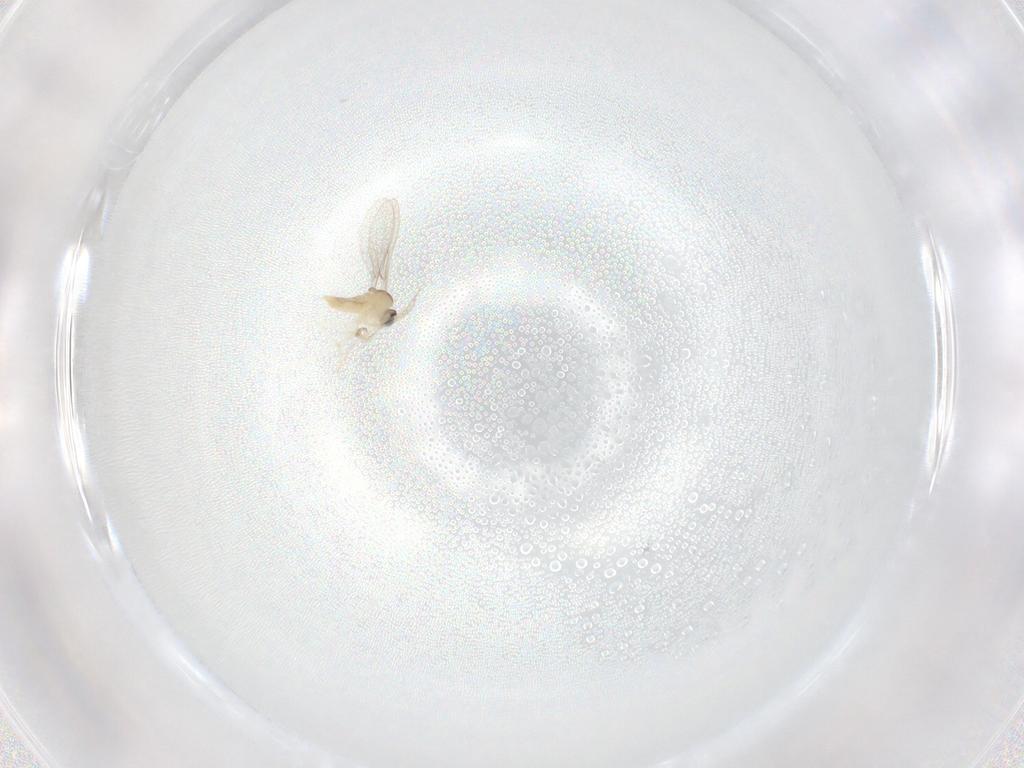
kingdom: Animalia
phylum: Arthropoda
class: Insecta
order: Diptera
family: Cecidomyiidae
